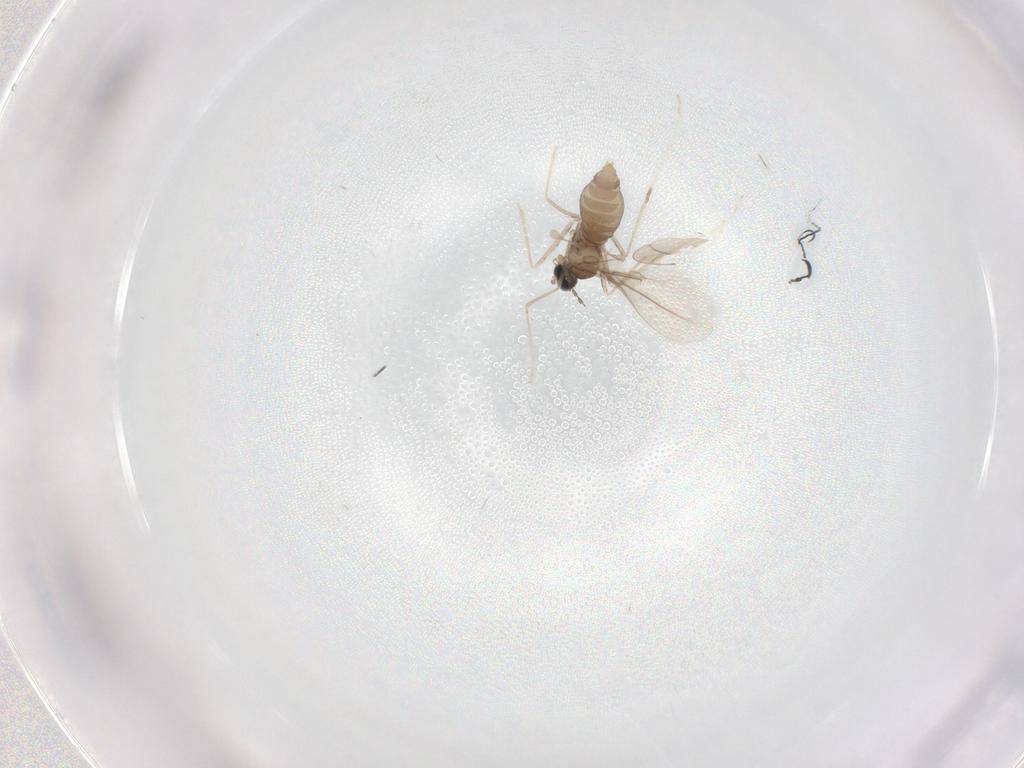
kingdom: Animalia
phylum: Arthropoda
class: Insecta
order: Diptera
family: Cecidomyiidae
